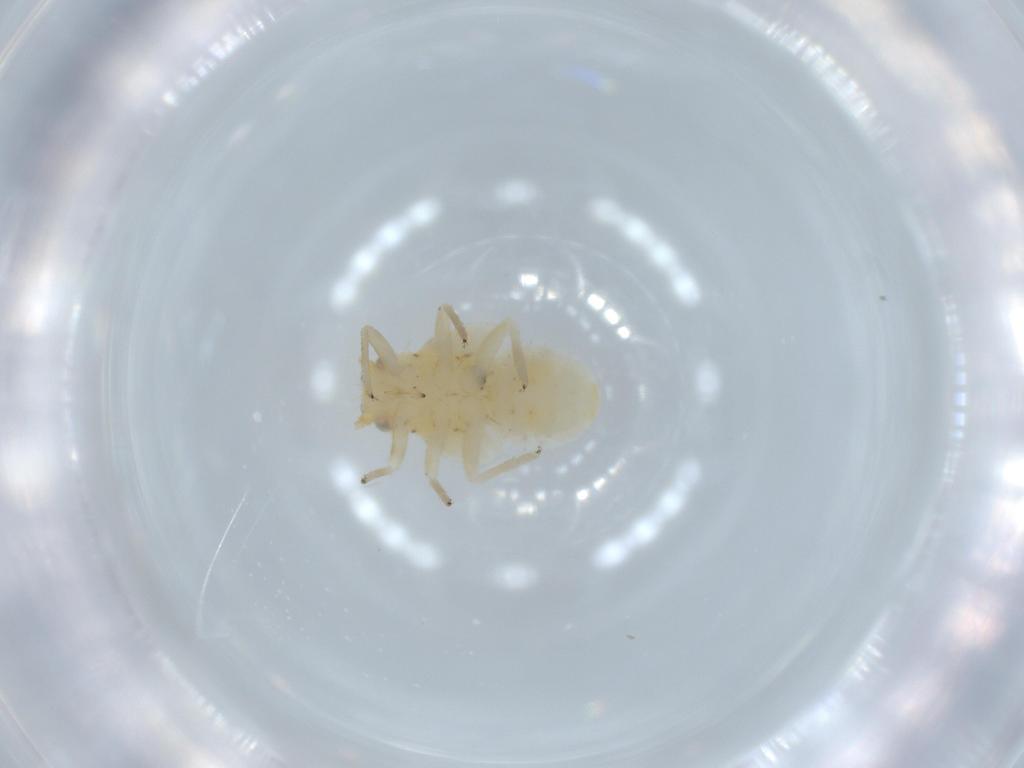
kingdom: Animalia
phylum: Arthropoda
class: Insecta
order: Hemiptera
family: Psyllidae
